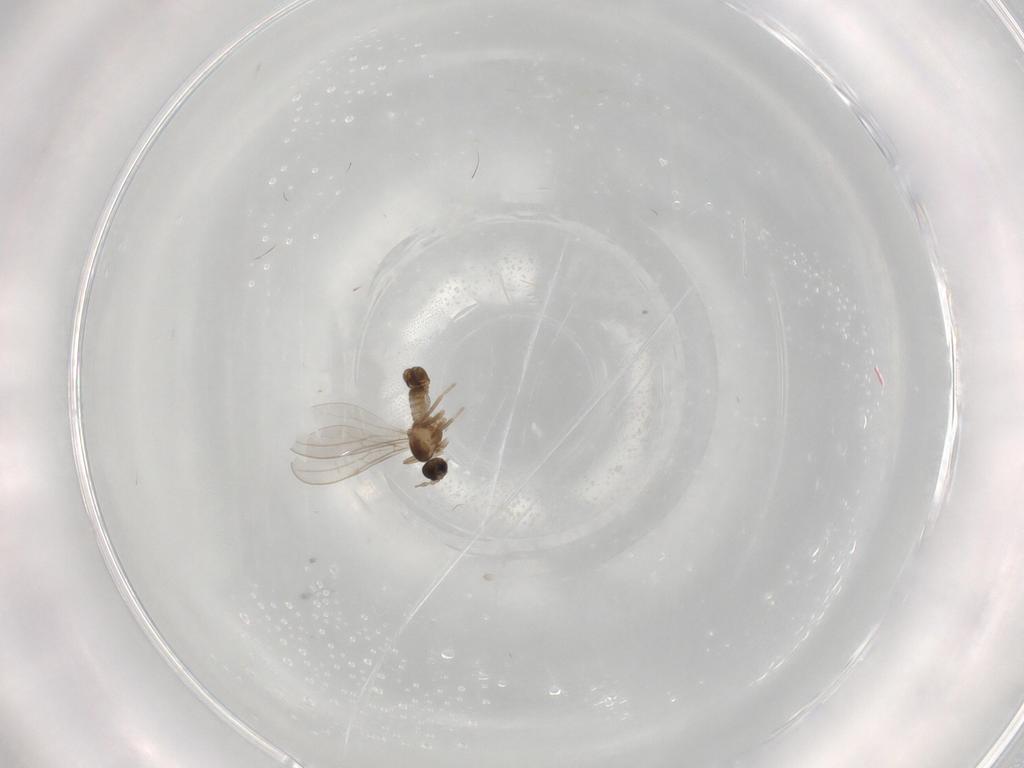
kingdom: Animalia
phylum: Arthropoda
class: Insecta
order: Diptera
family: Cecidomyiidae
